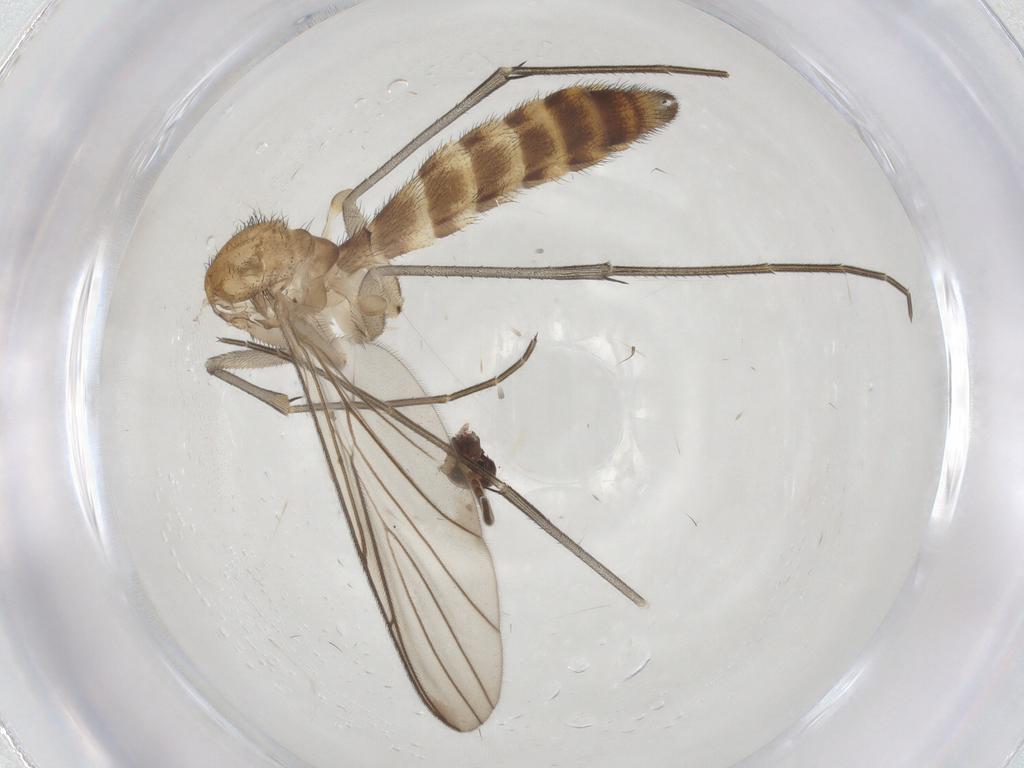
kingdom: Animalia
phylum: Arthropoda
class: Insecta
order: Diptera
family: Keroplatidae
